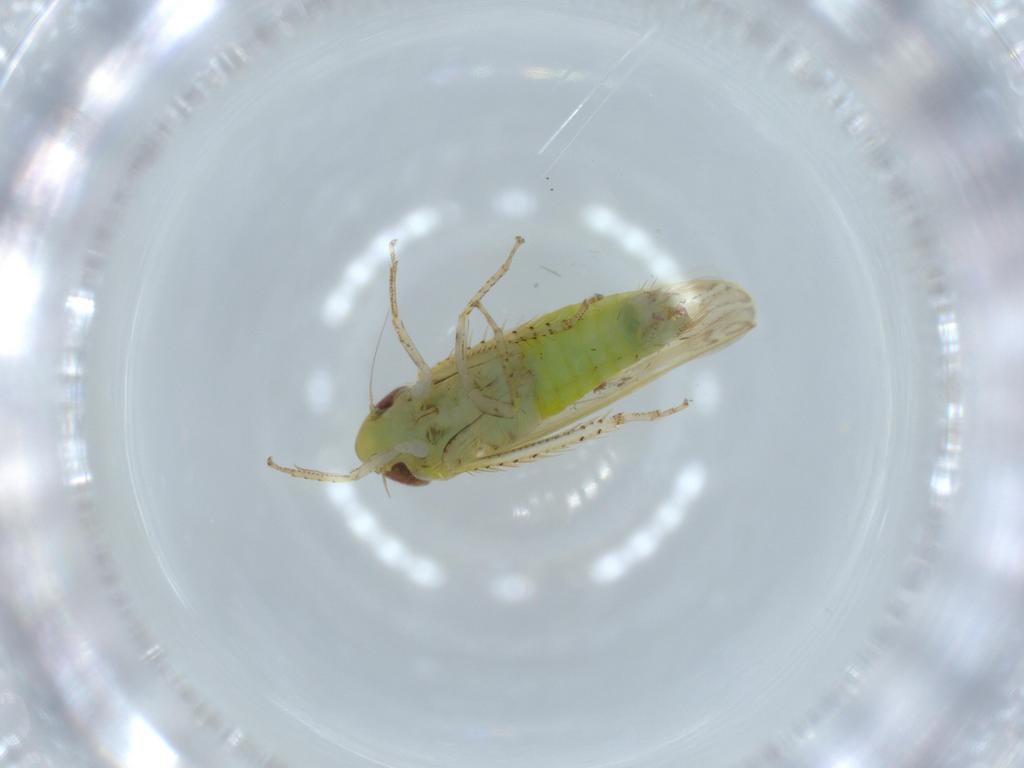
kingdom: Animalia
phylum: Arthropoda
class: Insecta
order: Hemiptera
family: Cicadellidae
